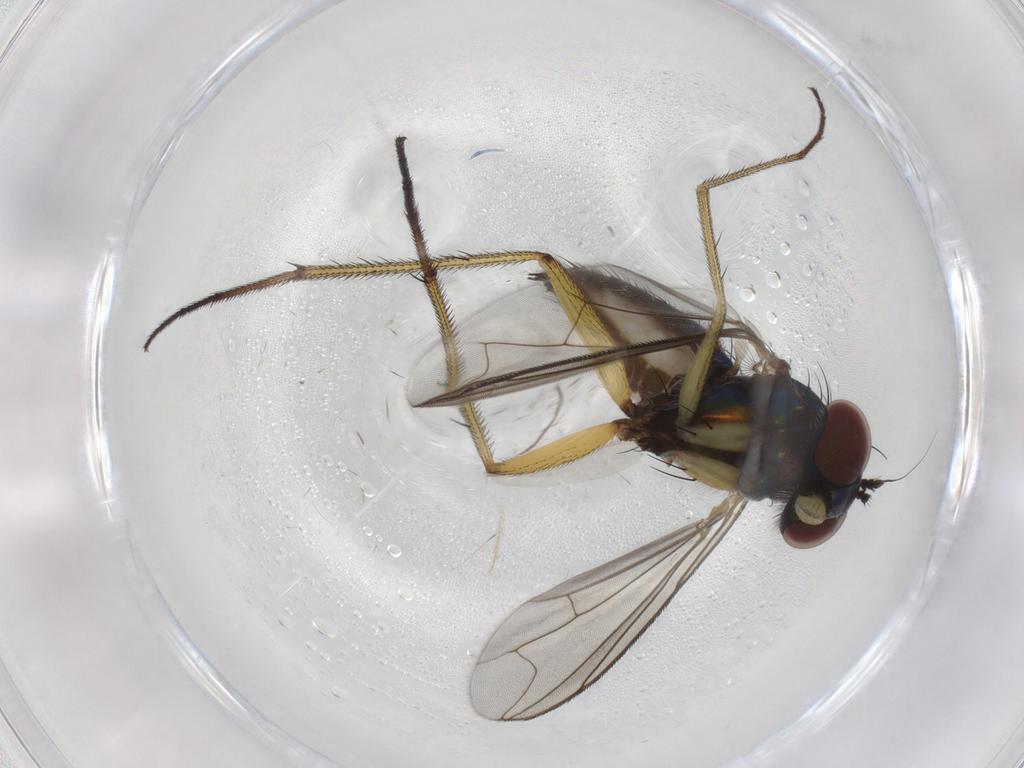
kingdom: Animalia
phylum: Arthropoda
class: Insecta
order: Diptera
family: Dolichopodidae
